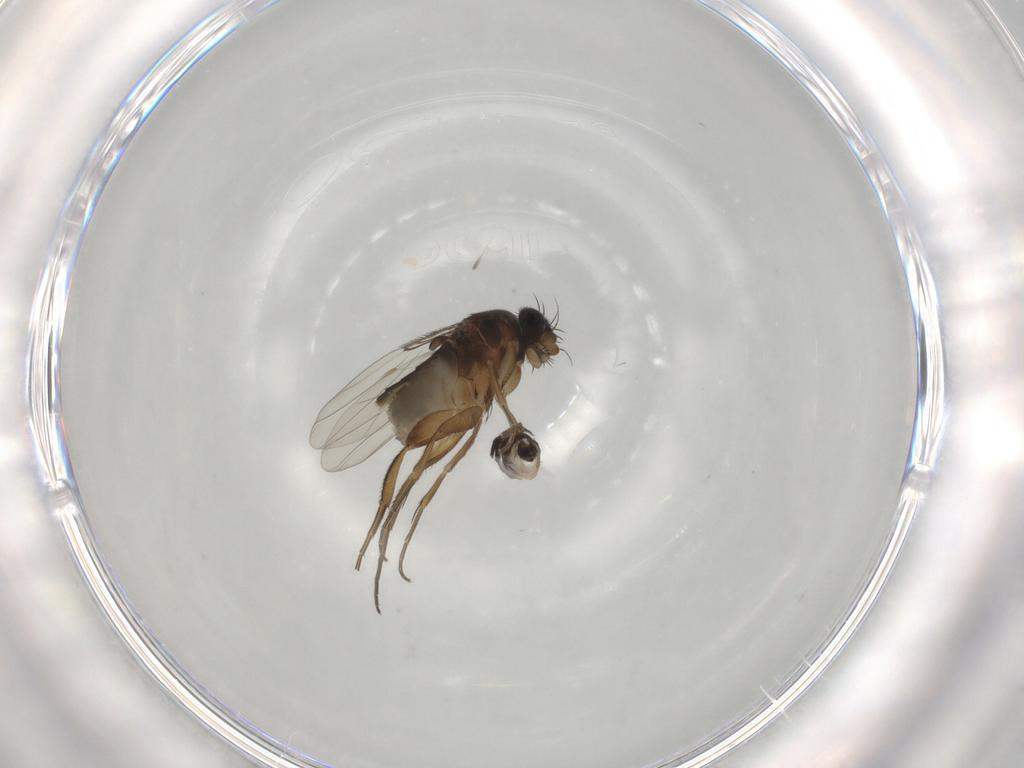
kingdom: Animalia
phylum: Arthropoda
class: Insecta
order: Diptera
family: Phoridae
